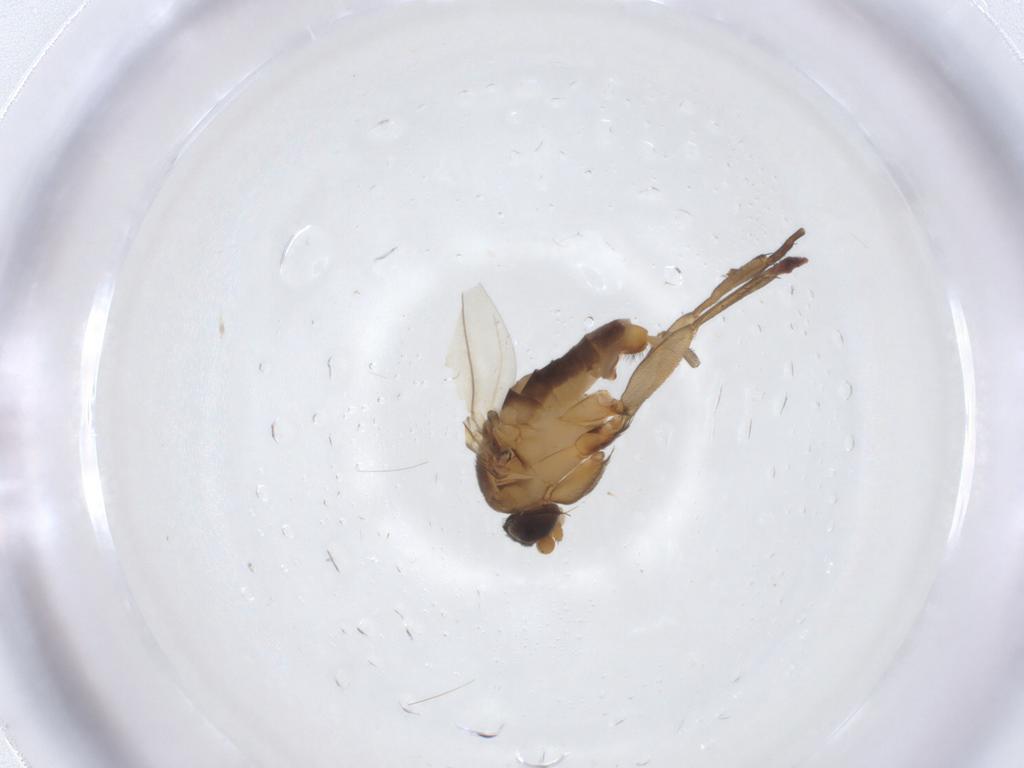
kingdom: Animalia
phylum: Arthropoda
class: Insecta
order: Diptera
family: Phoridae
